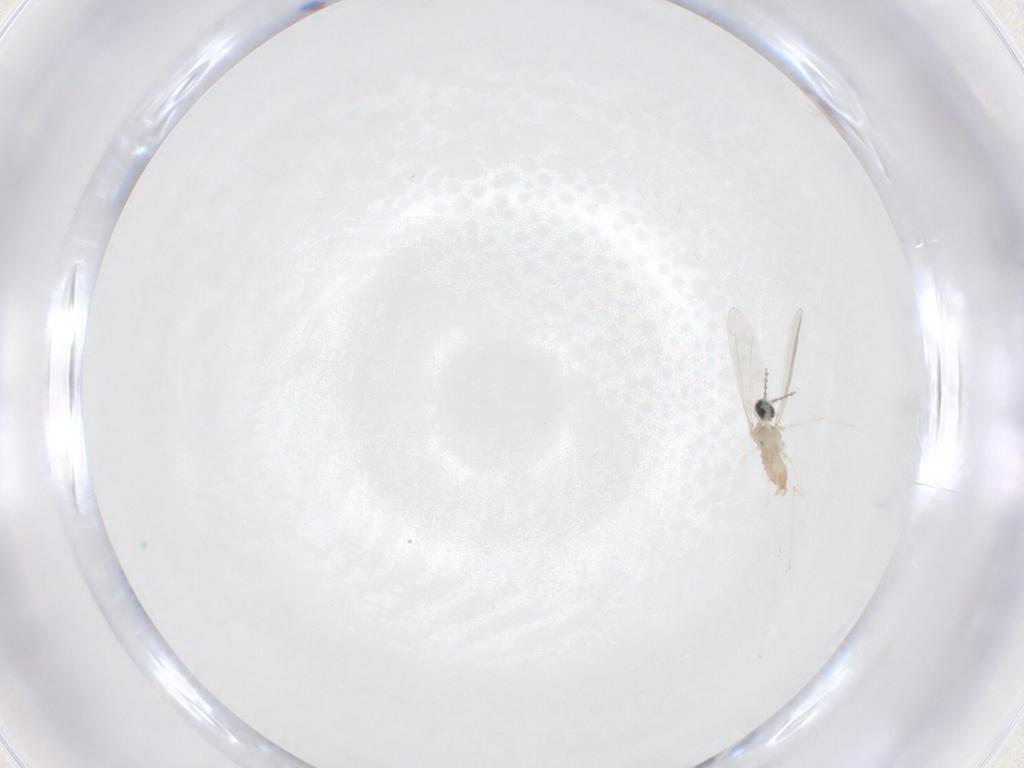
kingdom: Animalia
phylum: Arthropoda
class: Insecta
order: Diptera
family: Cecidomyiidae
